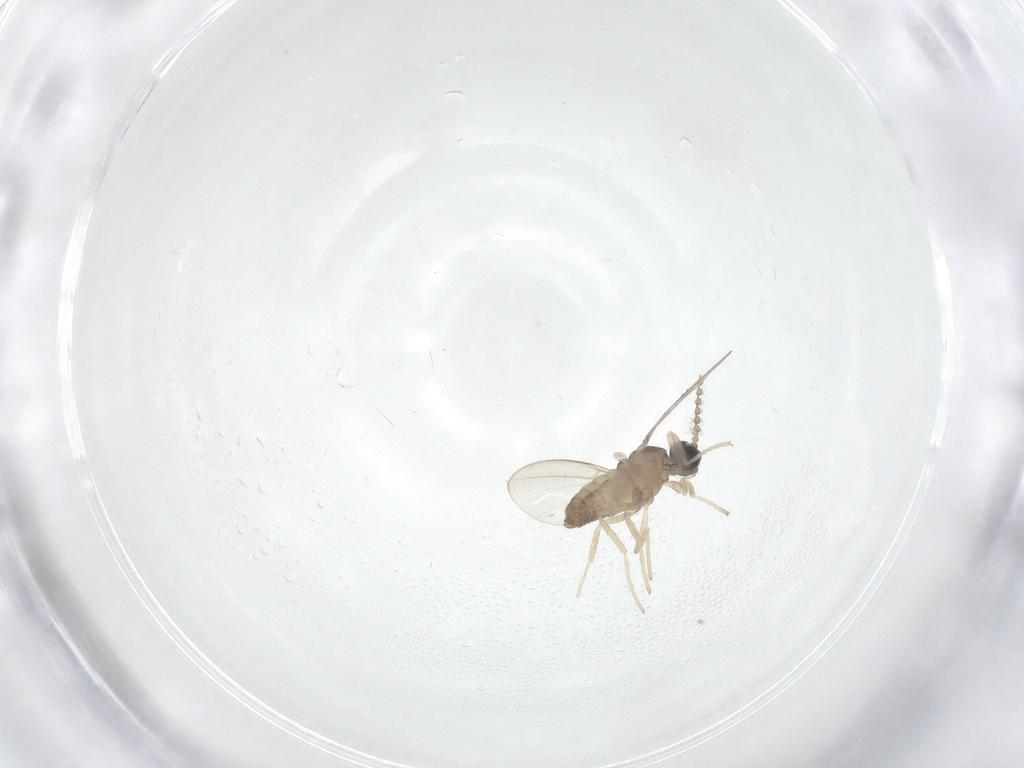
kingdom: Animalia
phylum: Arthropoda
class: Insecta
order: Diptera
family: Cecidomyiidae
